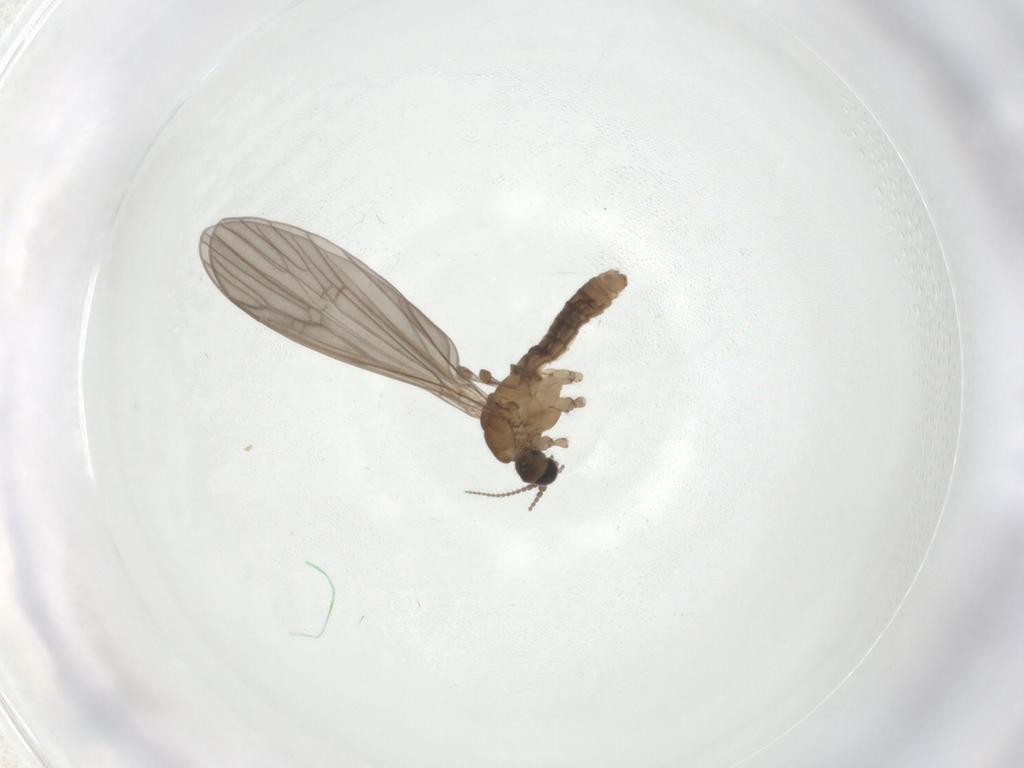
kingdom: Animalia
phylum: Arthropoda
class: Insecta
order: Diptera
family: Limoniidae
